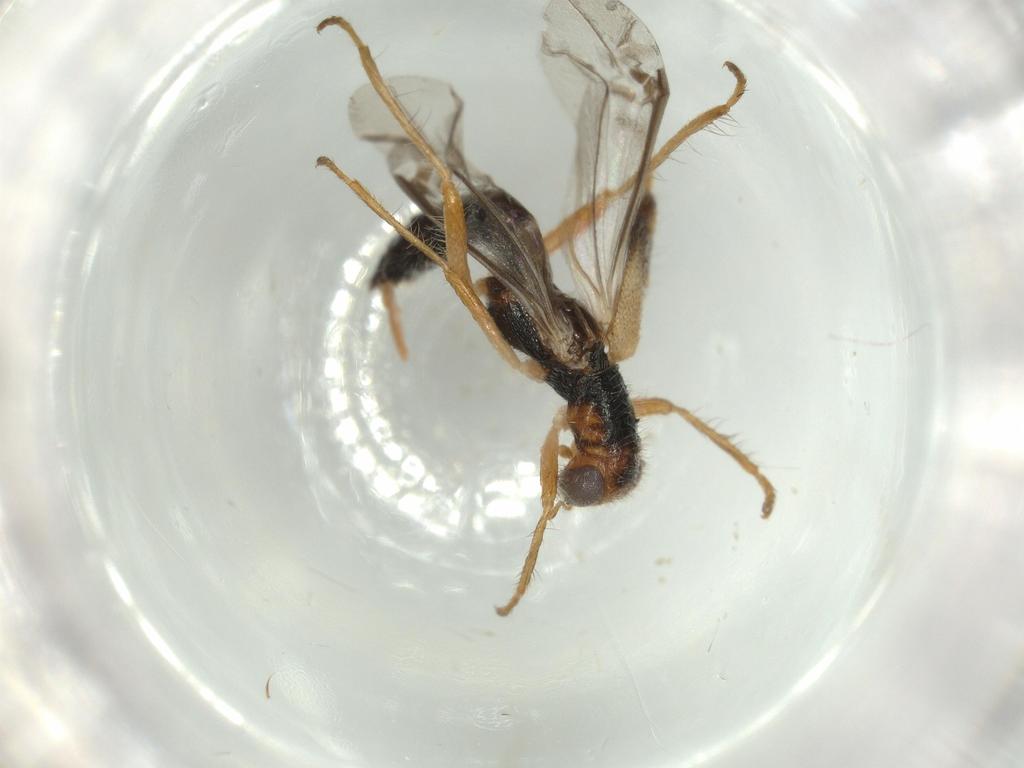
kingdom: Animalia
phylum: Arthropoda
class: Insecta
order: Coleoptera
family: Cleridae
